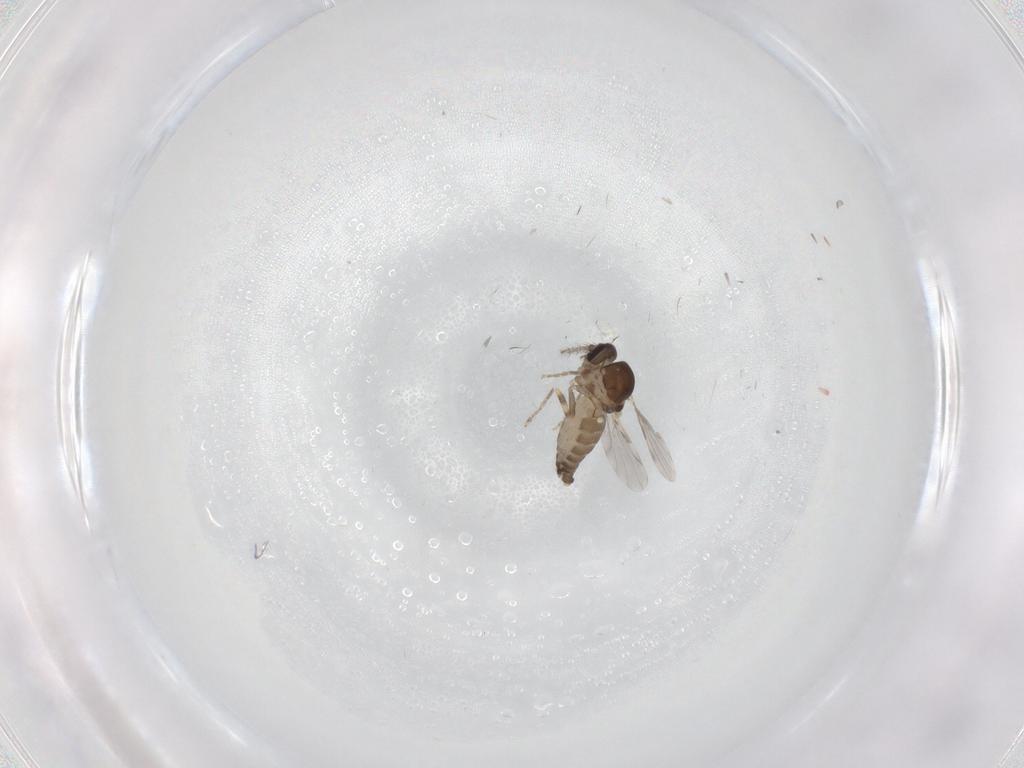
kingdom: Animalia
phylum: Arthropoda
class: Insecta
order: Diptera
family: Ceratopogonidae
